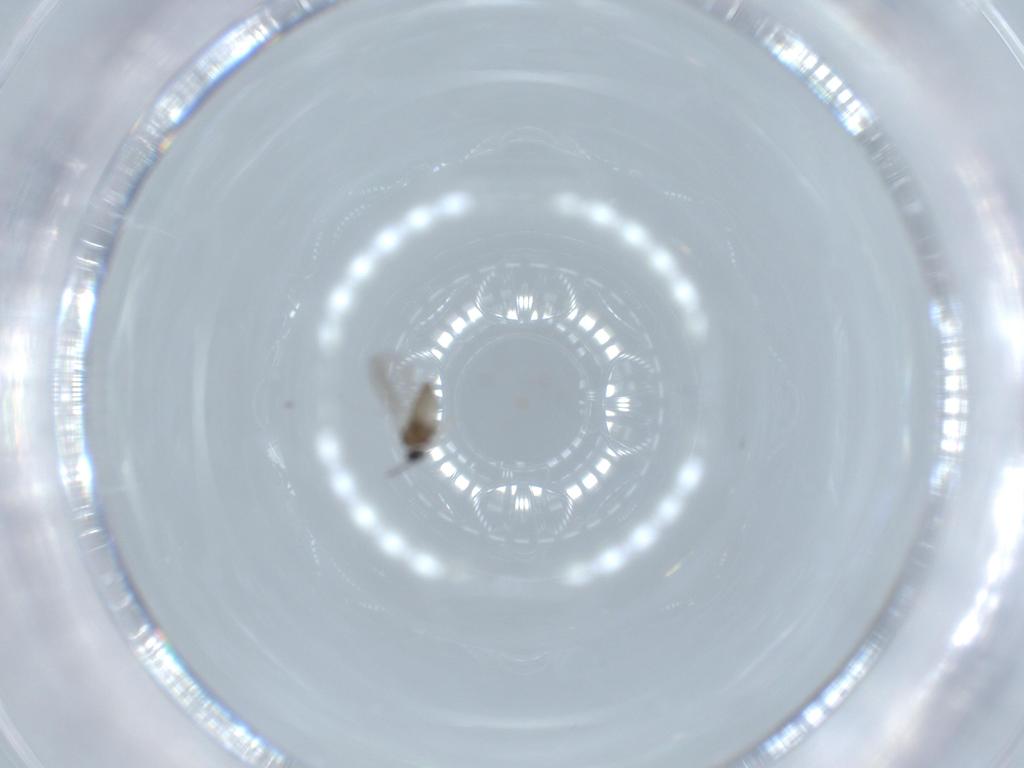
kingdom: Animalia
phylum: Arthropoda
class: Insecta
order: Diptera
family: Cecidomyiidae
